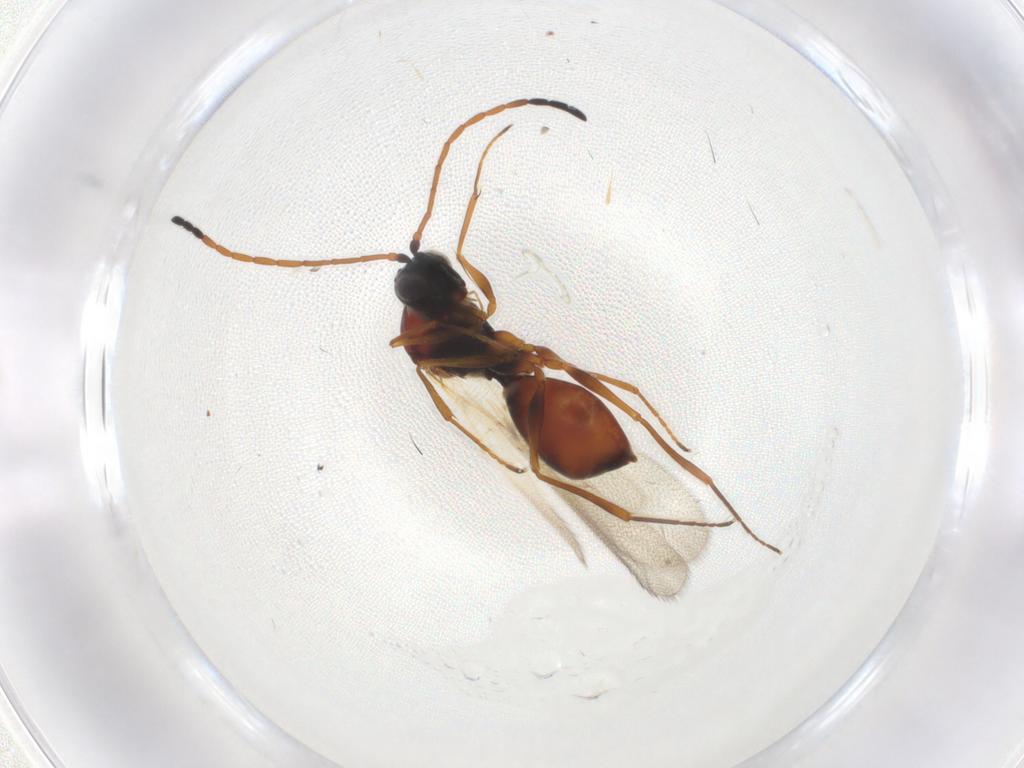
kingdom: Animalia
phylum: Arthropoda
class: Insecta
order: Hymenoptera
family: Figitidae
